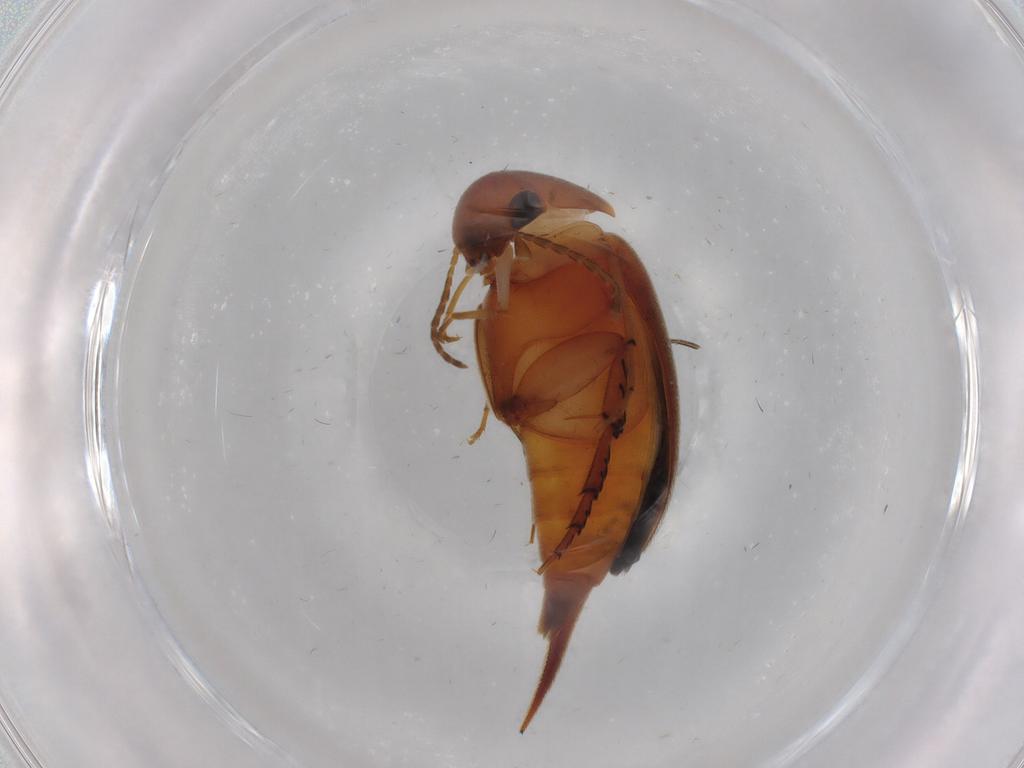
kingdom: Animalia
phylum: Arthropoda
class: Insecta
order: Coleoptera
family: Mordellidae
